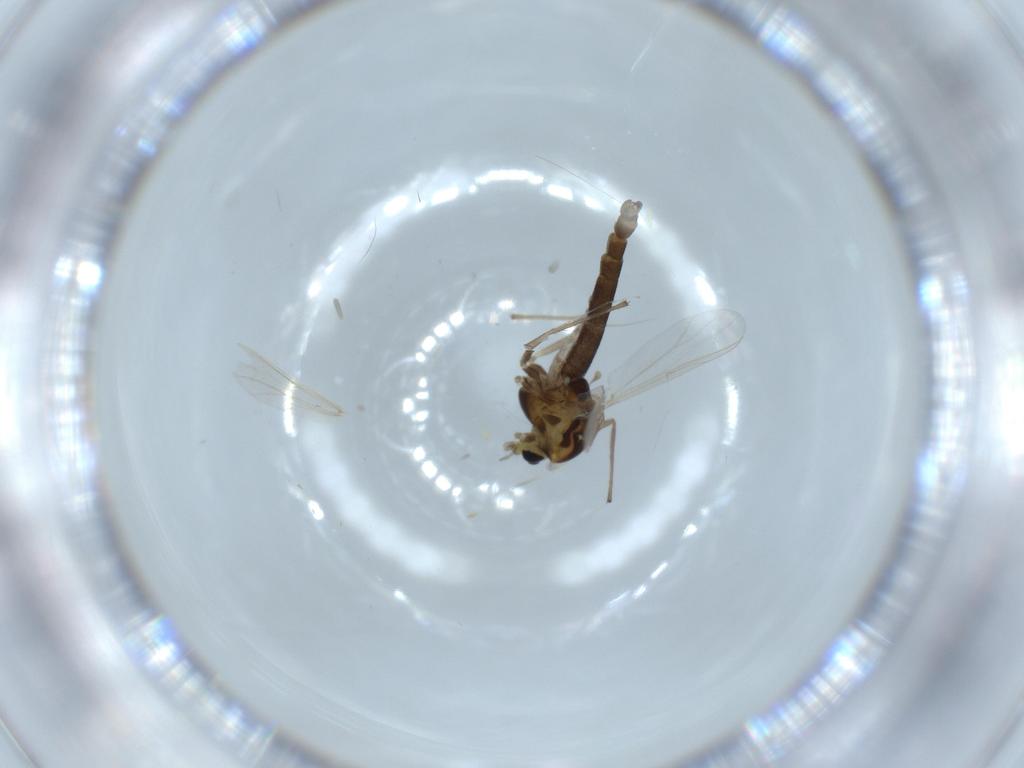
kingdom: Animalia
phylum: Arthropoda
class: Insecta
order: Diptera
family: Chironomidae
